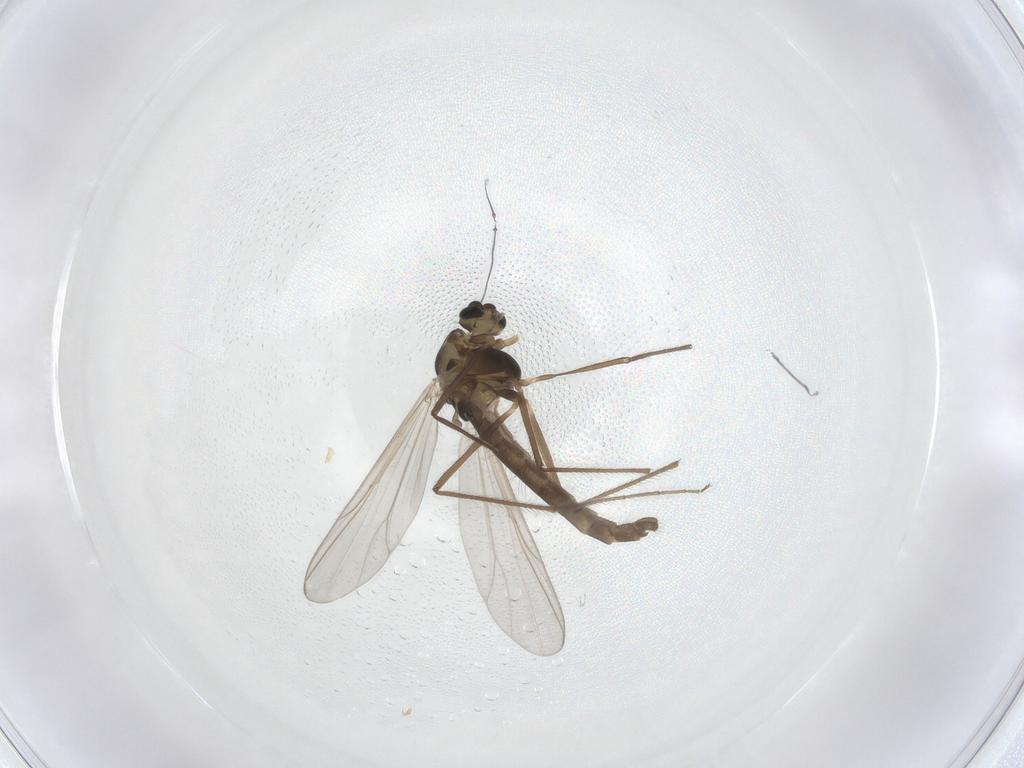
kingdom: Animalia
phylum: Arthropoda
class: Insecta
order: Diptera
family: Chironomidae
